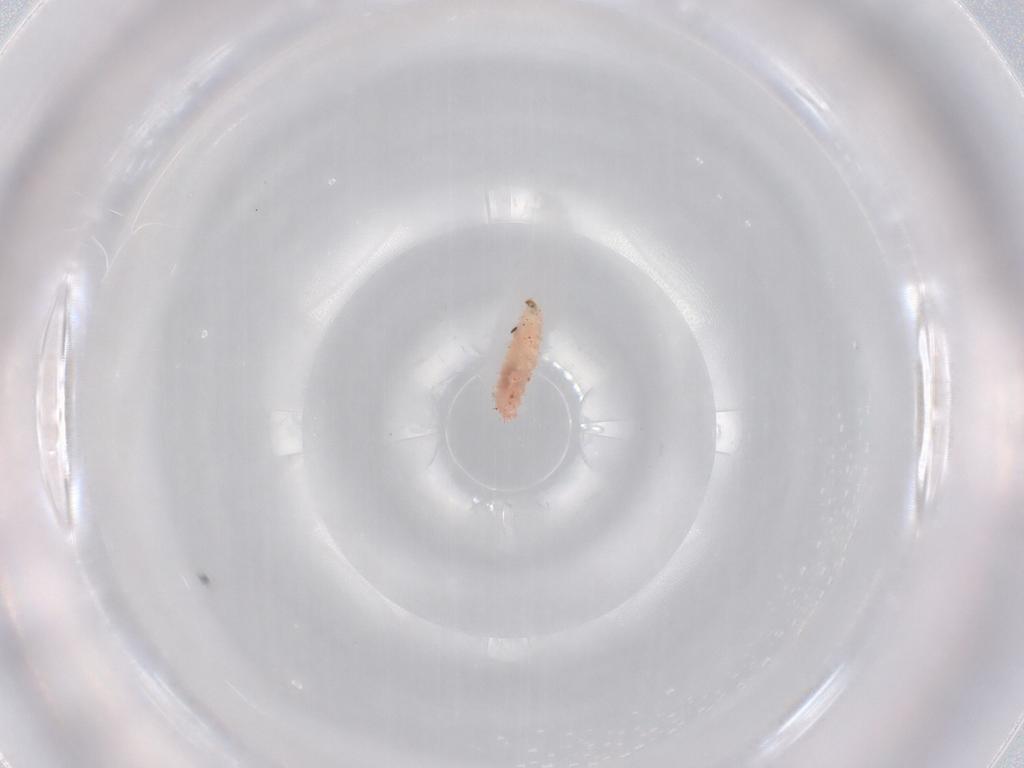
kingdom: Animalia
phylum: Arthropoda
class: Insecta
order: Diptera
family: Cecidomyiidae
